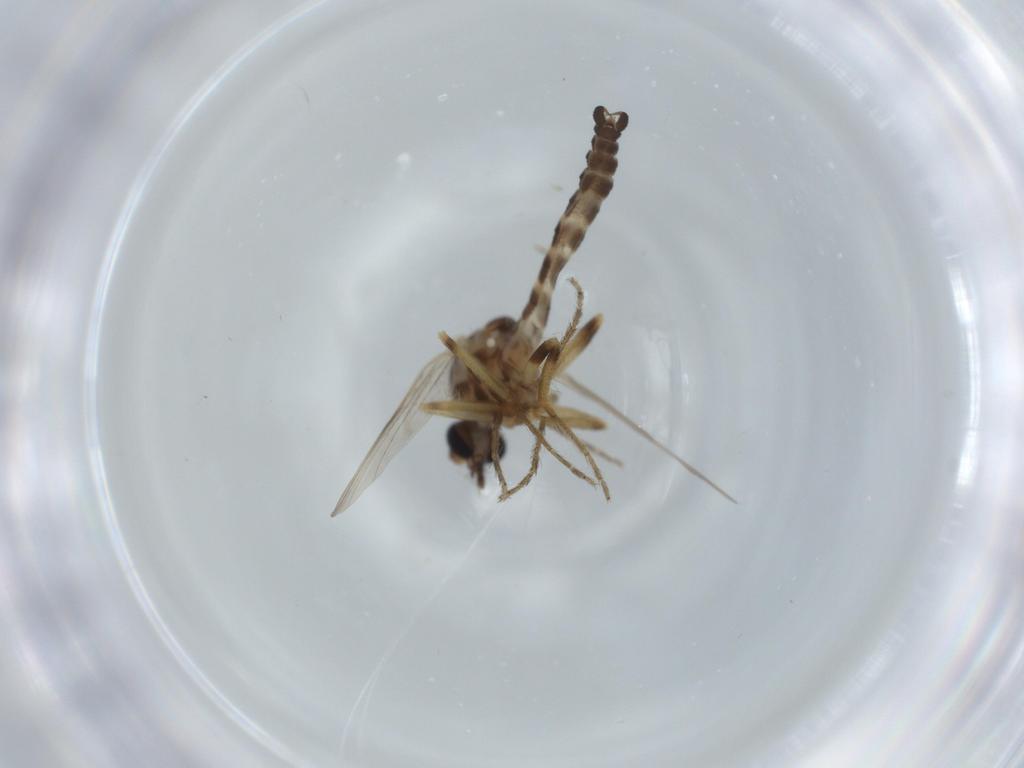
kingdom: Animalia
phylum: Arthropoda
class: Insecta
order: Diptera
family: Ceratopogonidae
